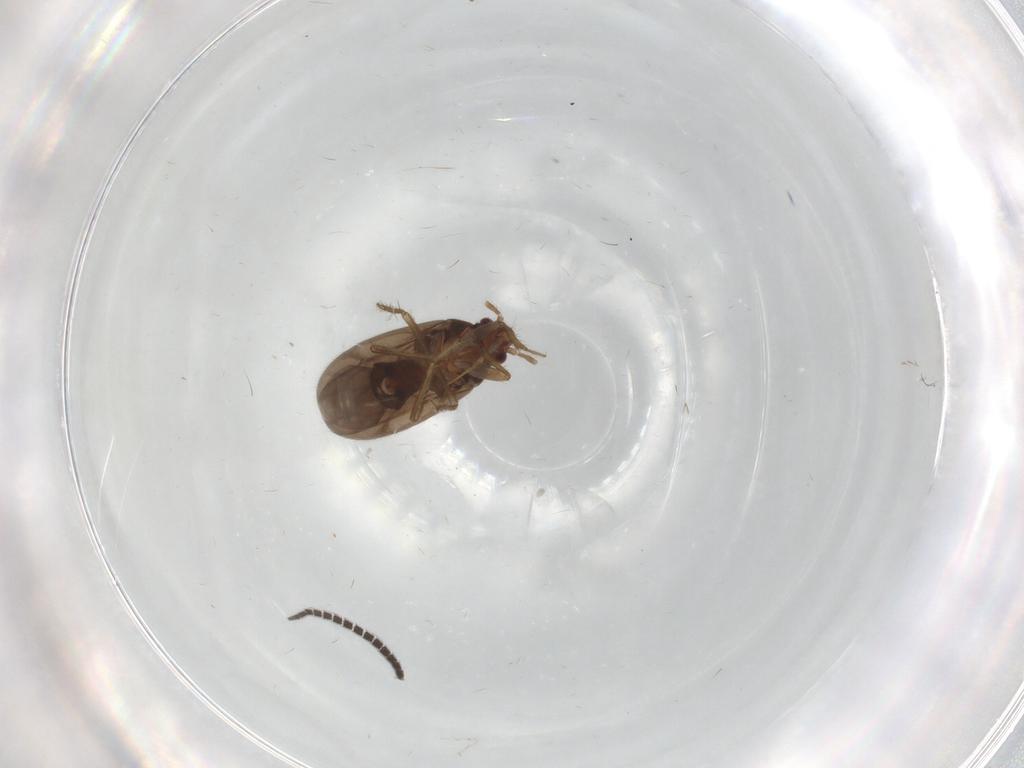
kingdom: Animalia
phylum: Arthropoda
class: Insecta
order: Hemiptera
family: Ceratocombidae
